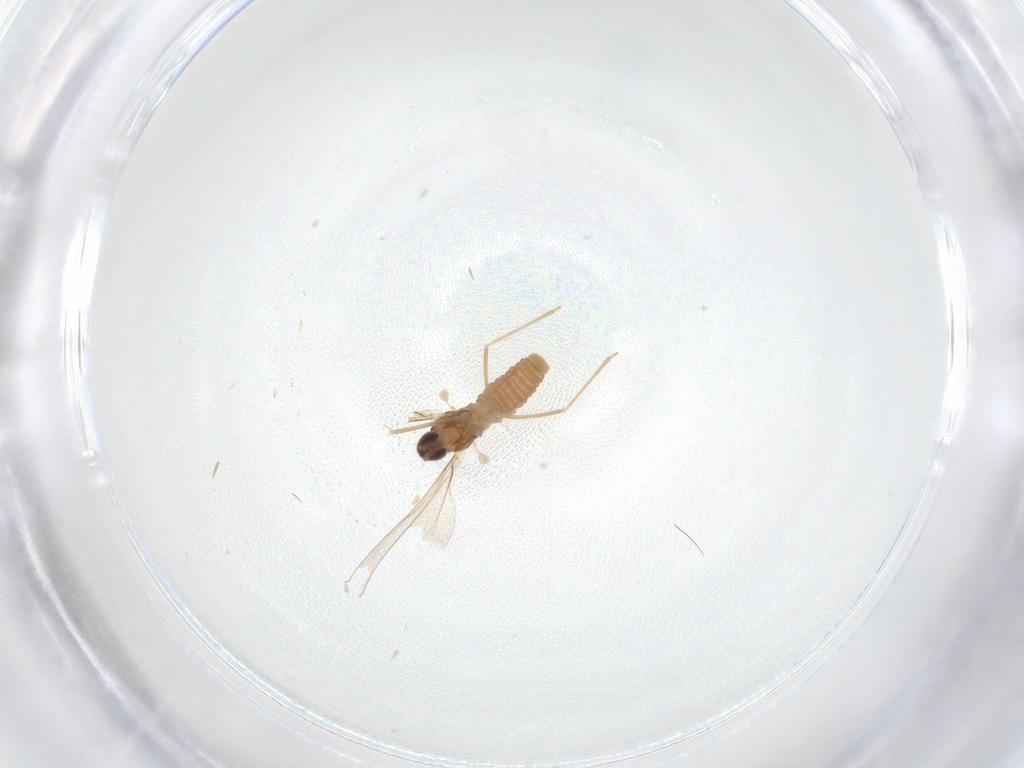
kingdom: Animalia
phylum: Arthropoda
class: Insecta
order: Diptera
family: Cecidomyiidae
